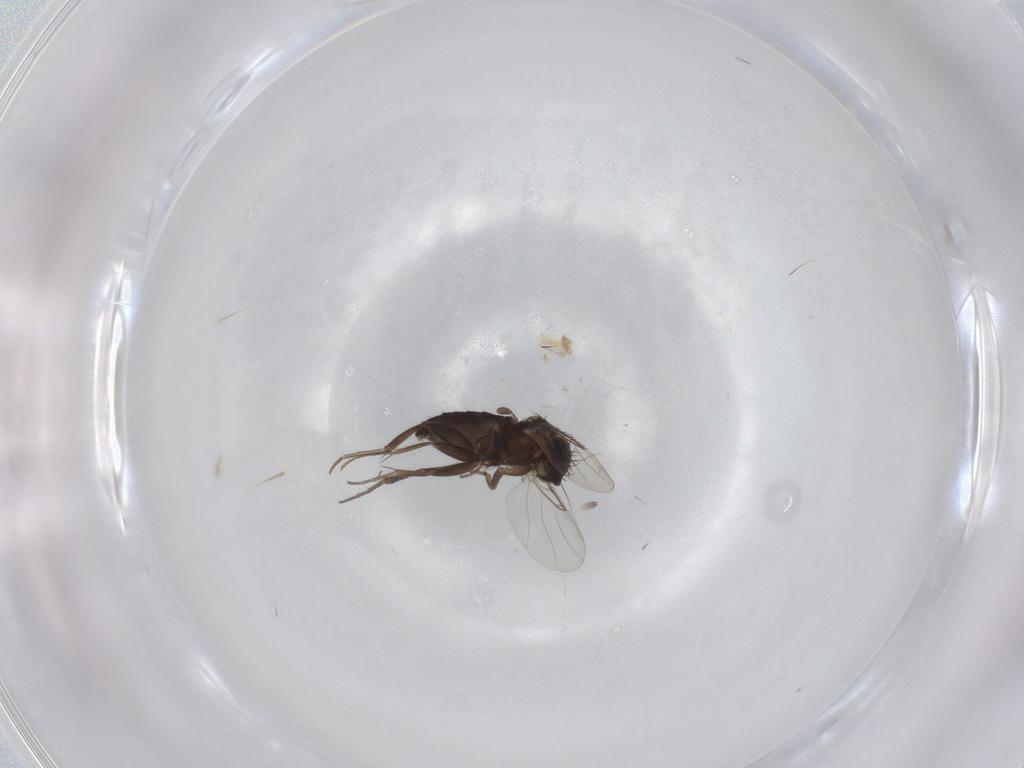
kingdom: Animalia
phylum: Arthropoda
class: Insecta
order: Diptera
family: Phoridae
